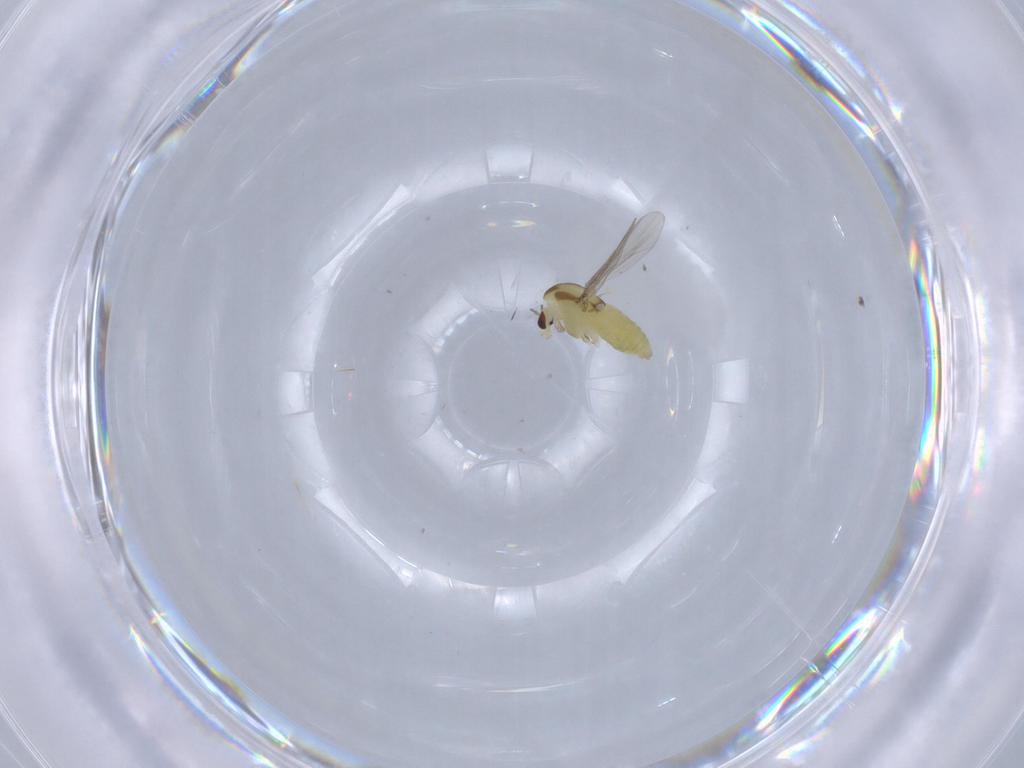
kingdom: Animalia
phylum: Arthropoda
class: Insecta
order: Diptera
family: Chironomidae
